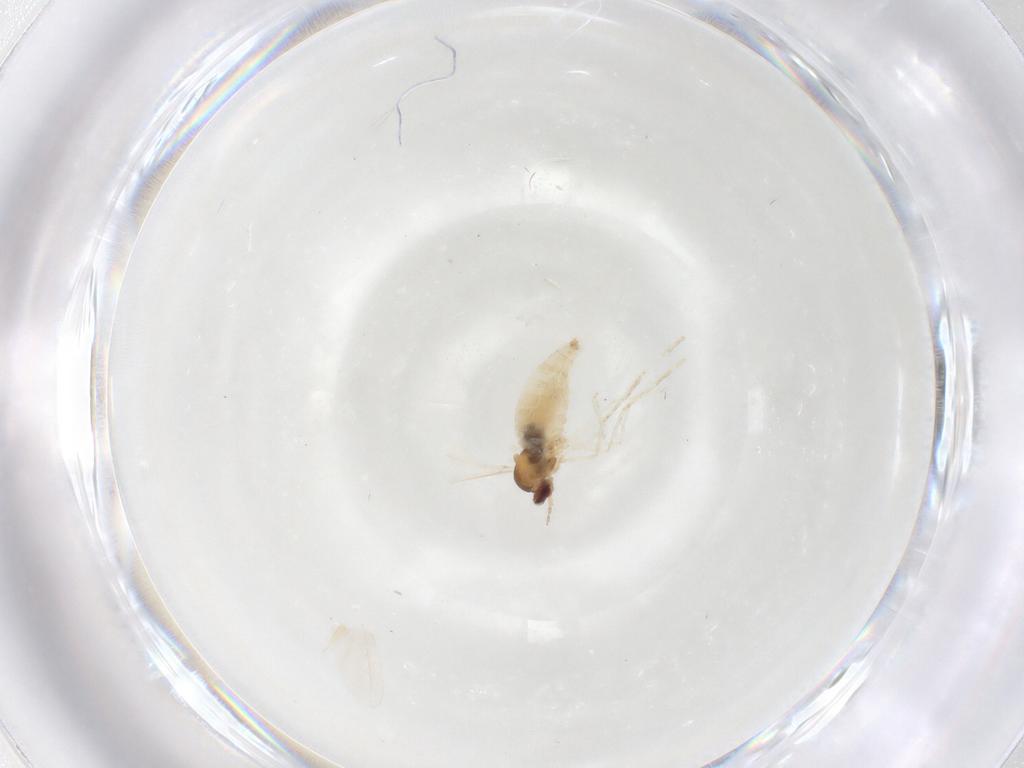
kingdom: Animalia
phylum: Arthropoda
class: Insecta
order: Diptera
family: Cecidomyiidae
